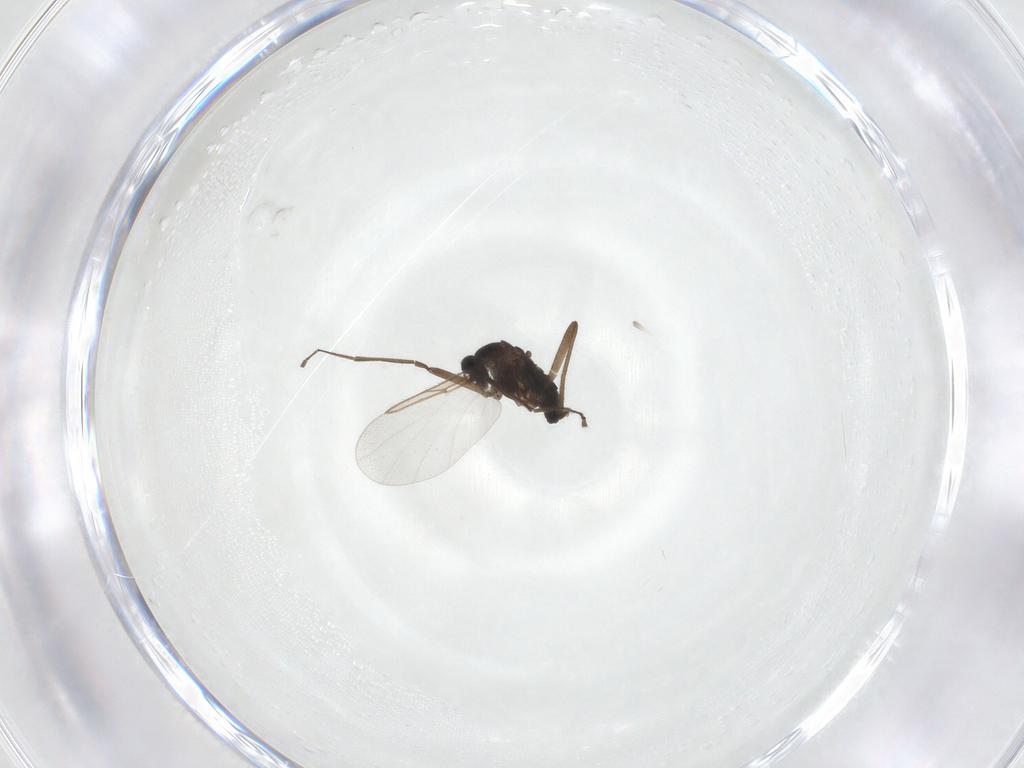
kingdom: Animalia
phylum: Arthropoda
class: Insecta
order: Diptera
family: Cecidomyiidae
